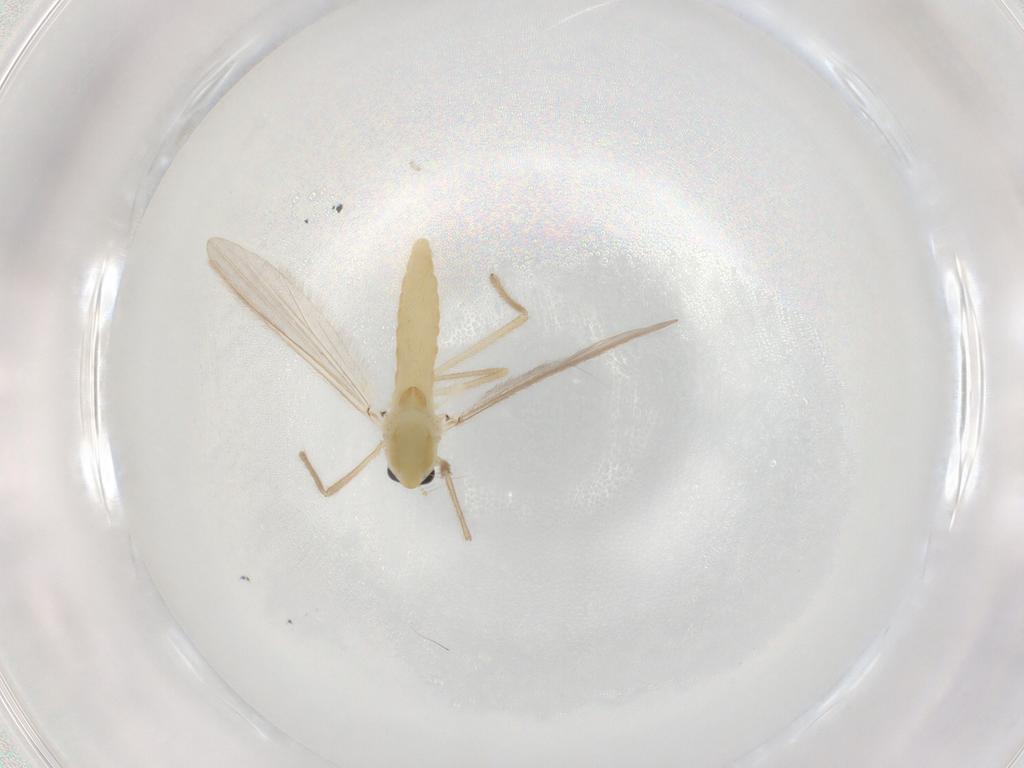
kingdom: Animalia
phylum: Arthropoda
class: Insecta
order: Diptera
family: Chironomidae
